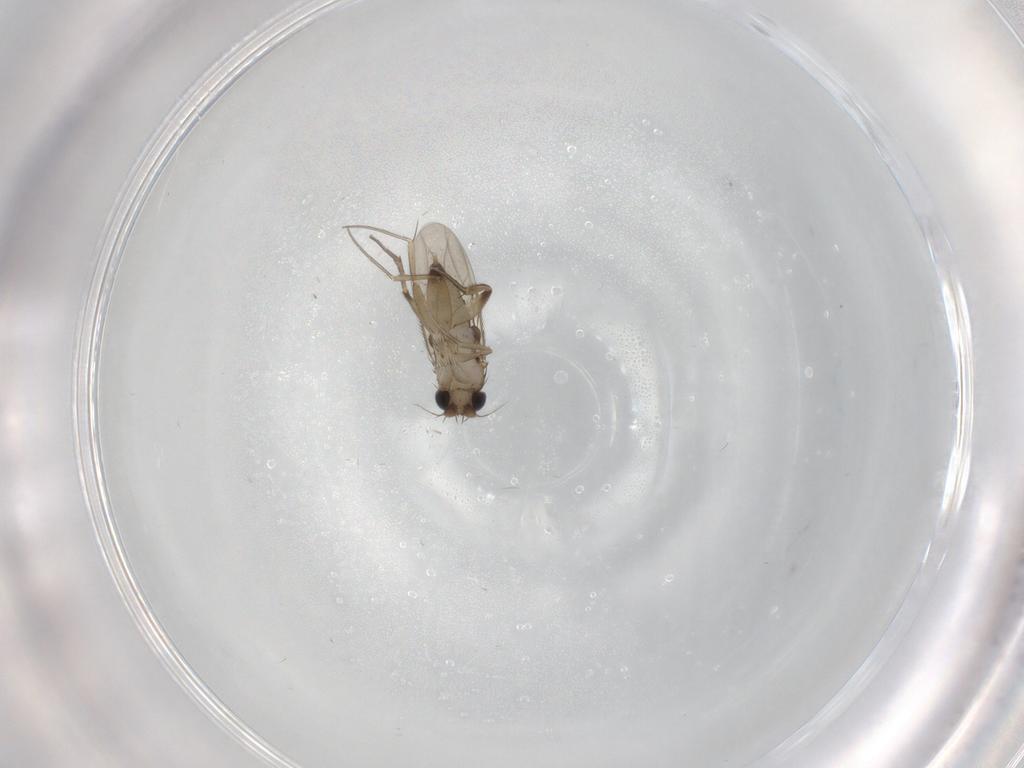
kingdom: Animalia
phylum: Arthropoda
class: Insecta
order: Diptera
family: Phoridae
